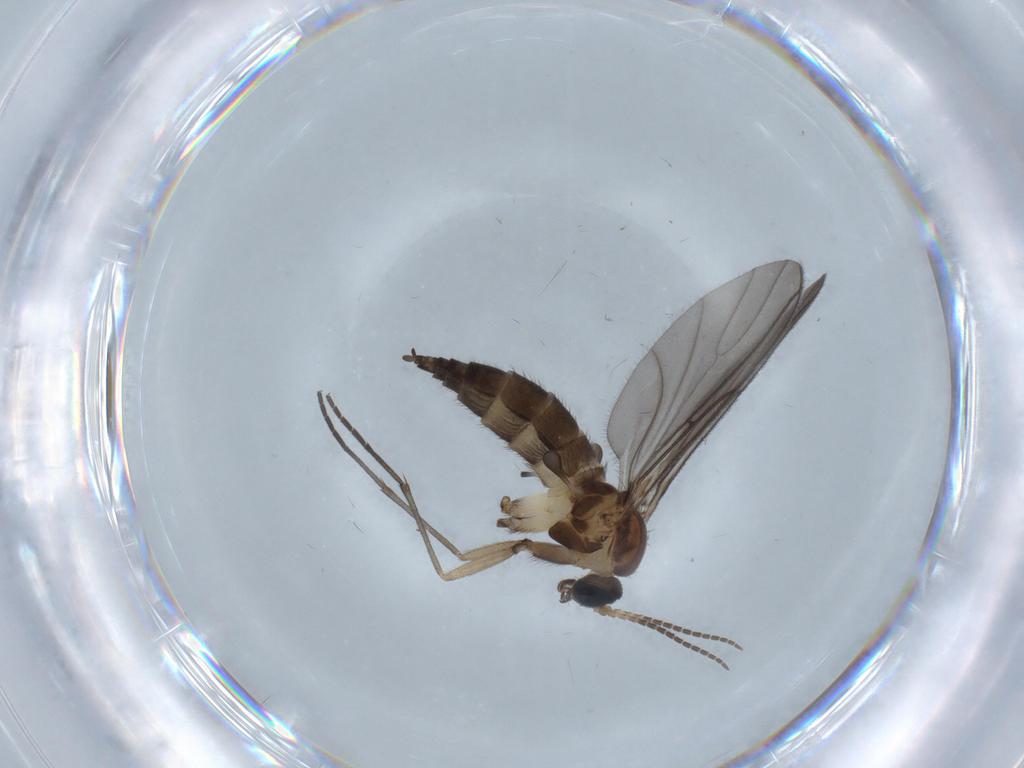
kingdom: Animalia
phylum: Arthropoda
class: Insecta
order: Diptera
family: Sciaridae
